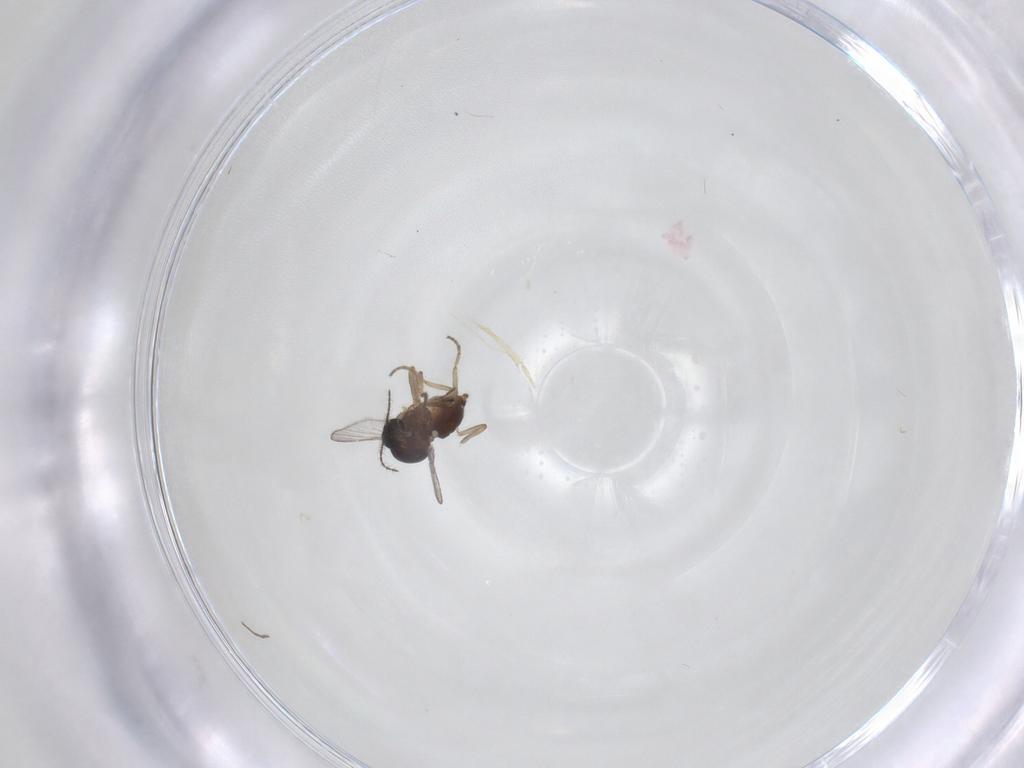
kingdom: Animalia
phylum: Arthropoda
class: Insecta
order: Diptera
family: Ceratopogonidae
